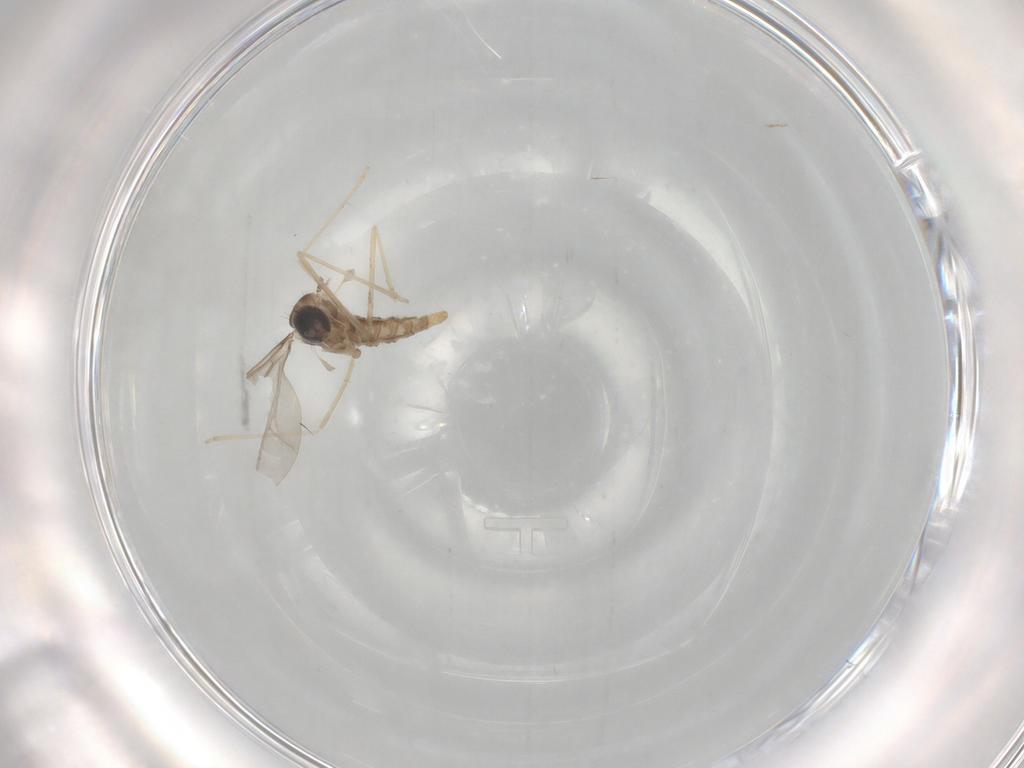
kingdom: Animalia
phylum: Arthropoda
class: Insecta
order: Diptera
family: Cecidomyiidae
